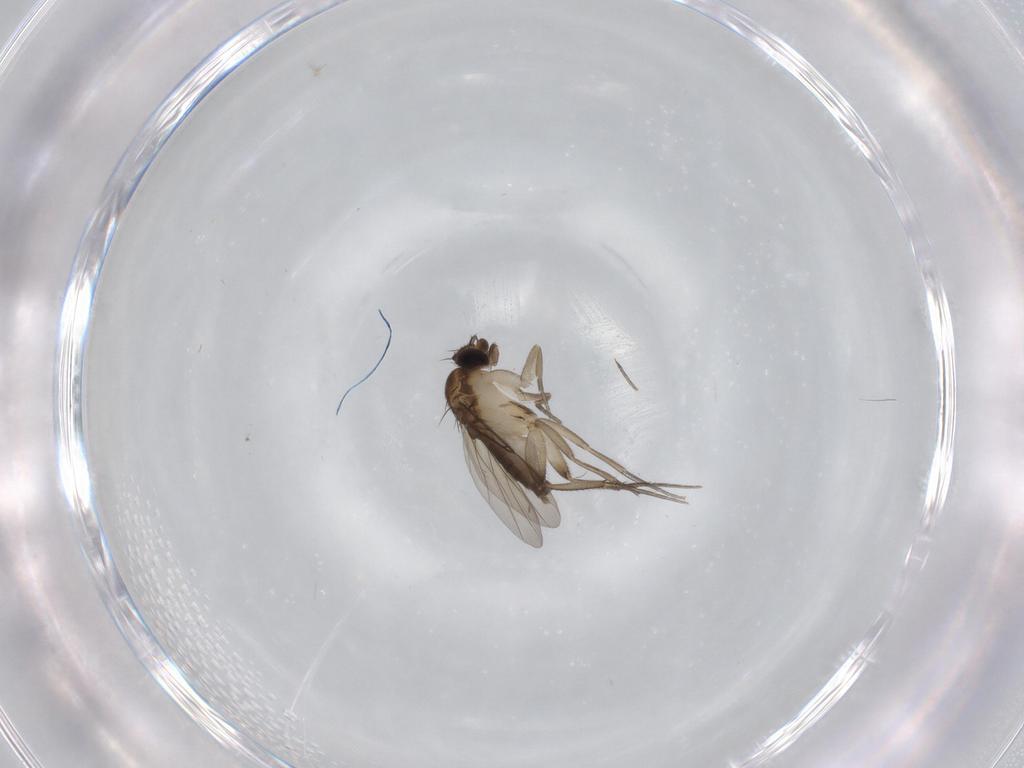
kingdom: Animalia
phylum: Arthropoda
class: Insecta
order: Diptera
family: Phoridae
